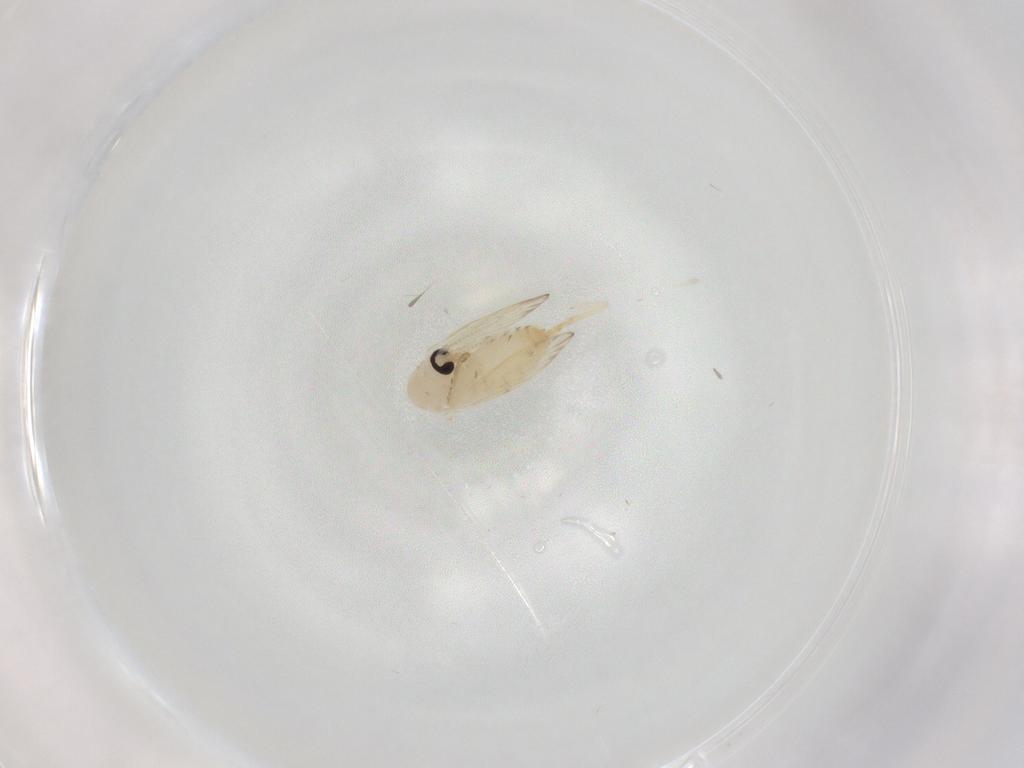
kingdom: Animalia
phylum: Arthropoda
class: Insecta
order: Diptera
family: Psychodidae
